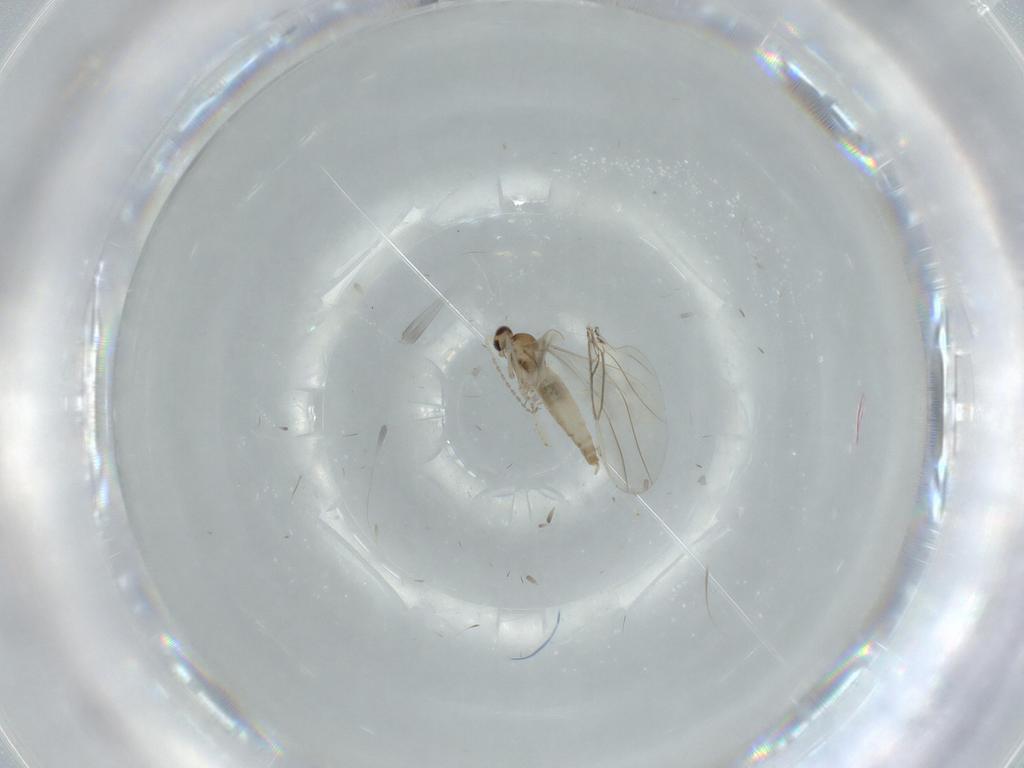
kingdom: Animalia
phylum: Arthropoda
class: Insecta
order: Diptera
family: Cecidomyiidae
